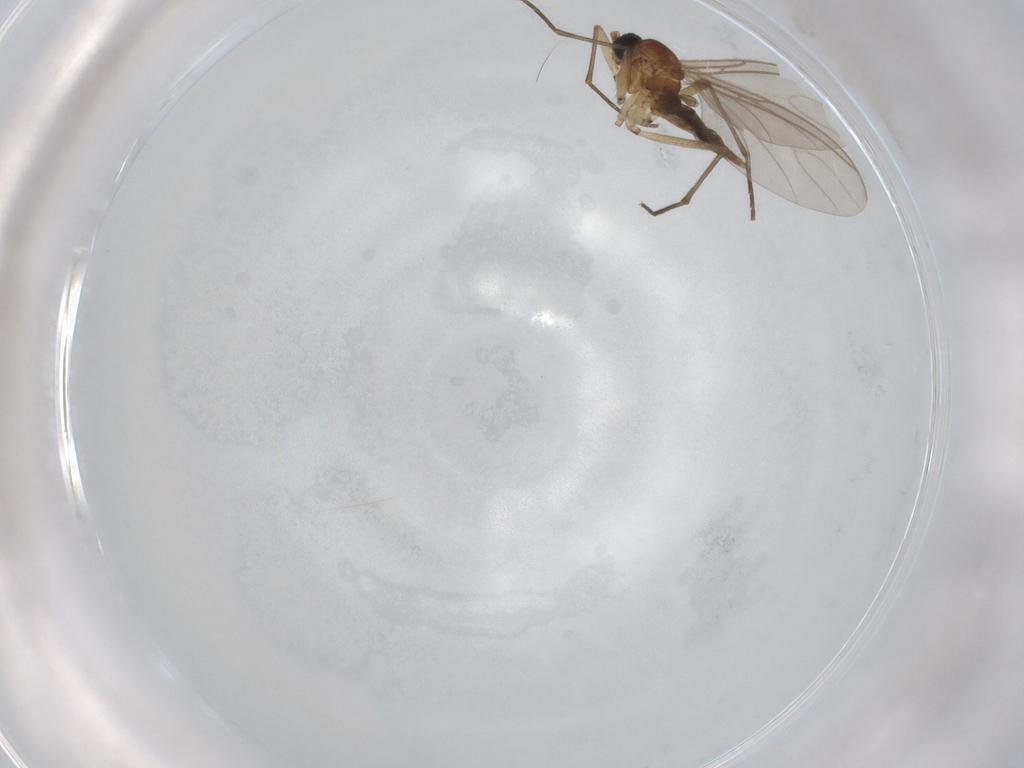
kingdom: Animalia
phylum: Arthropoda
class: Insecta
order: Diptera
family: Sciaridae
